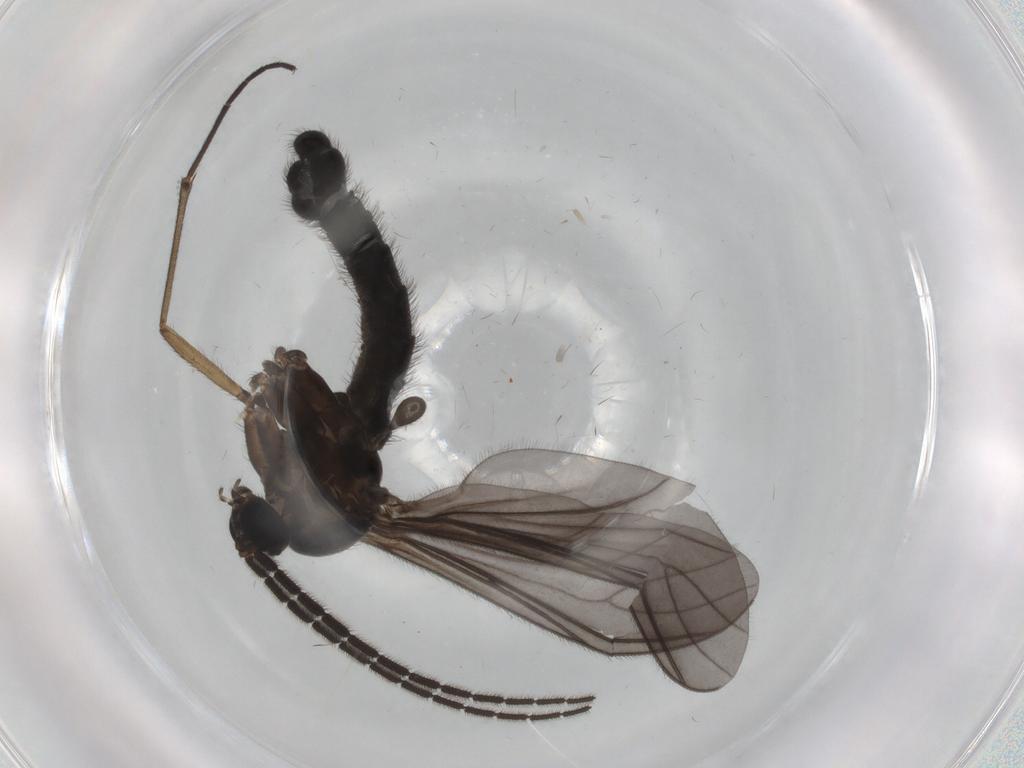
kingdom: Animalia
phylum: Arthropoda
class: Insecta
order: Diptera
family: Sciaridae
